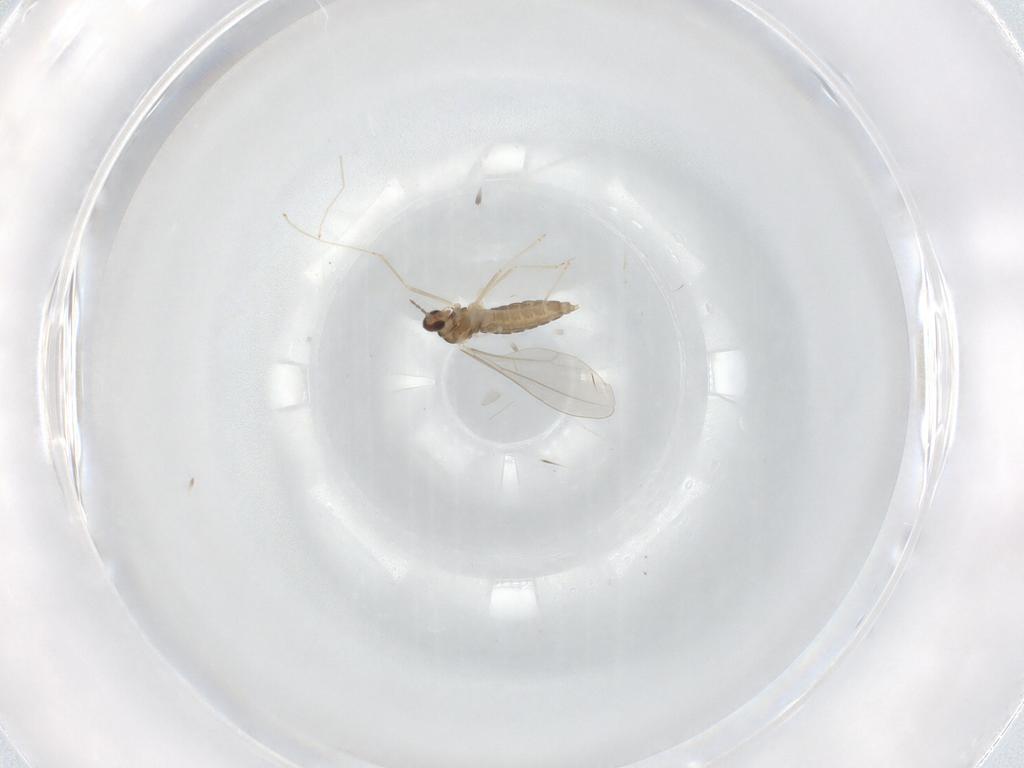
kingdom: Animalia
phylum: Arthropoda
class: Insecta
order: Diptera
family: Cecidomyiidae
